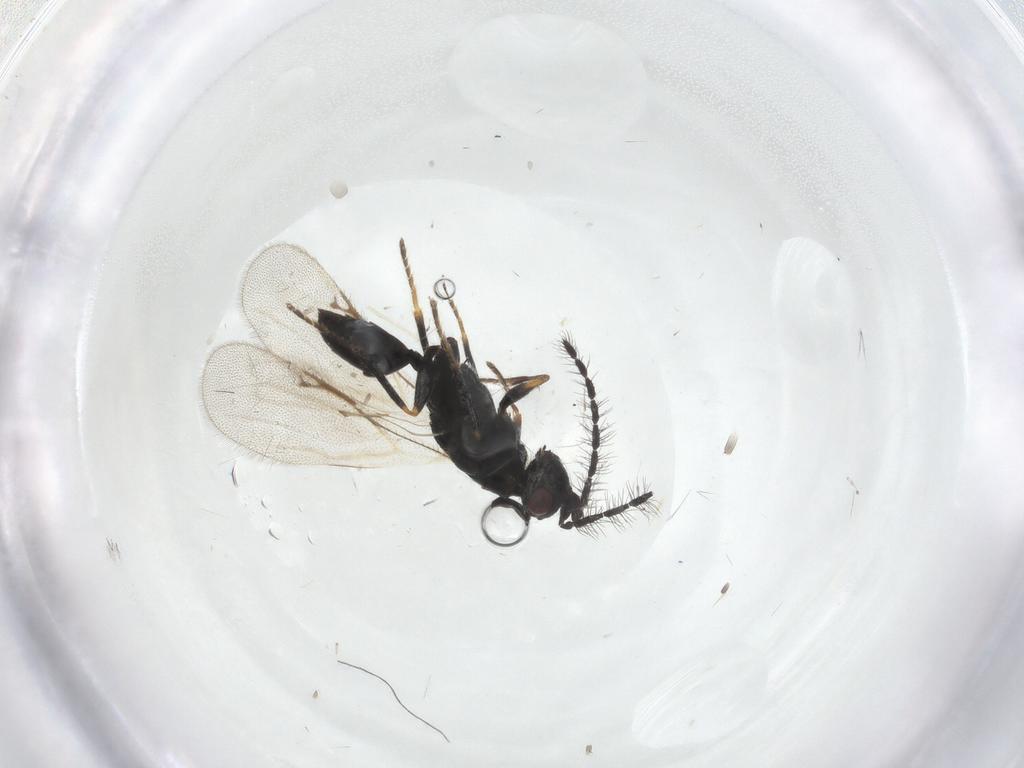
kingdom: Animalia
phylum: Arthropoda
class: Insecta
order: Hymenoptera
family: Eurytomidae
